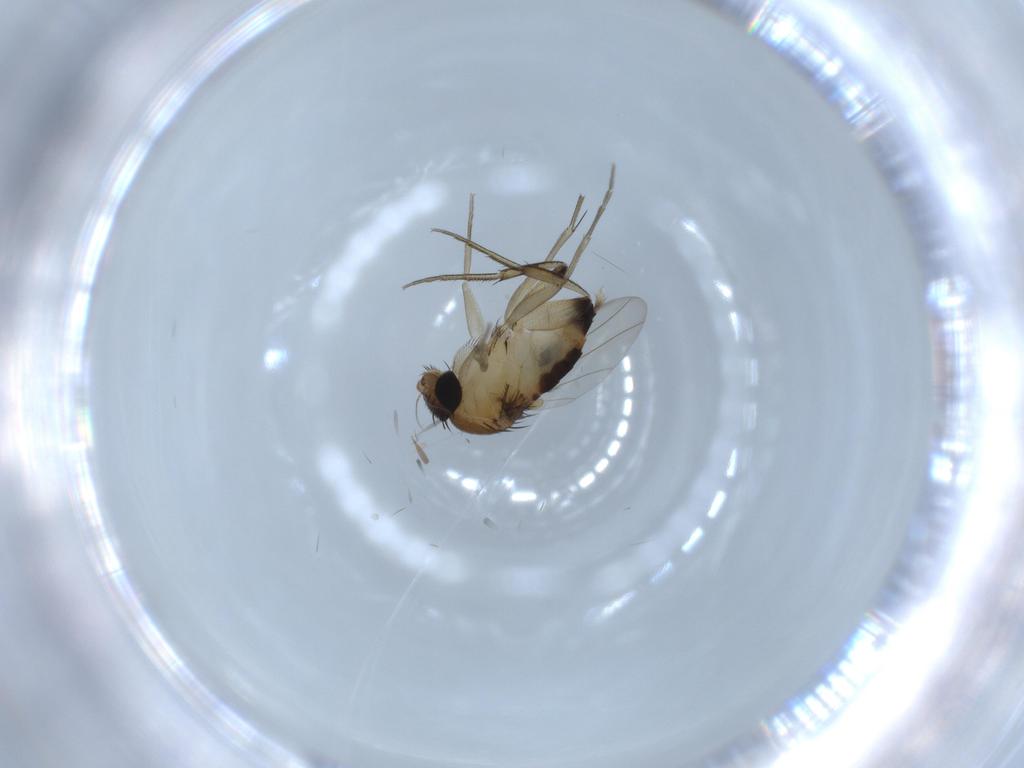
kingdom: Animalia
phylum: Arthropoda
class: Insecta
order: Diptera
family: Phoridae
